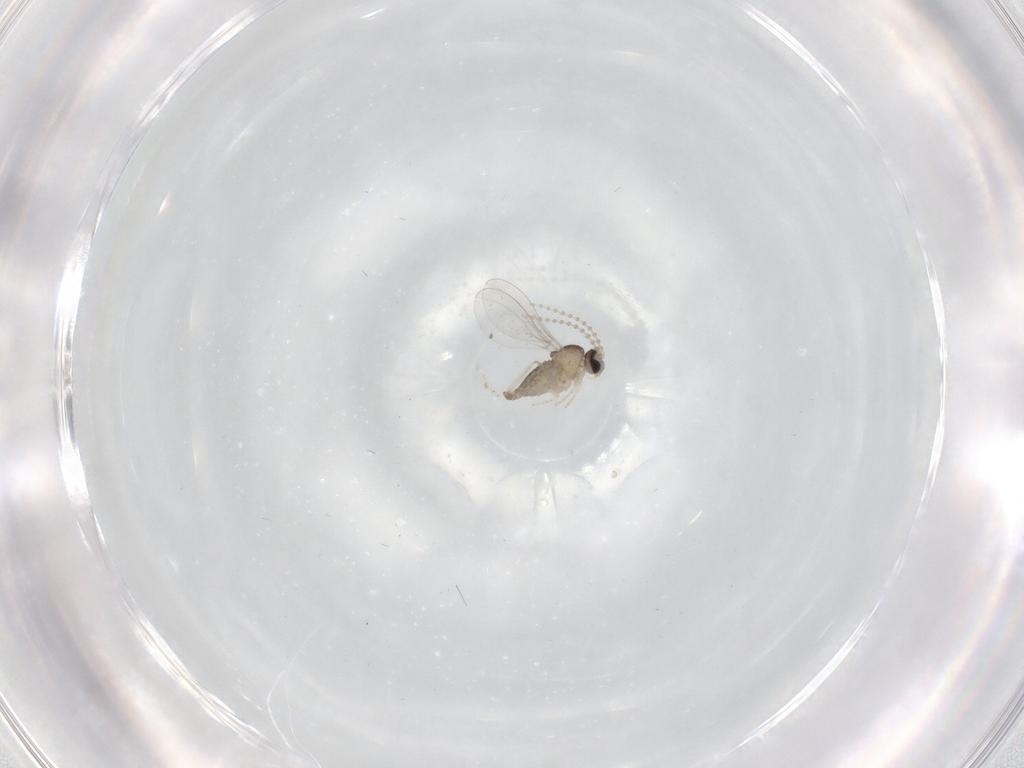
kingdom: Animalia
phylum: Arthropoda
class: Insecta
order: Diptera
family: Cecidomyiidae
